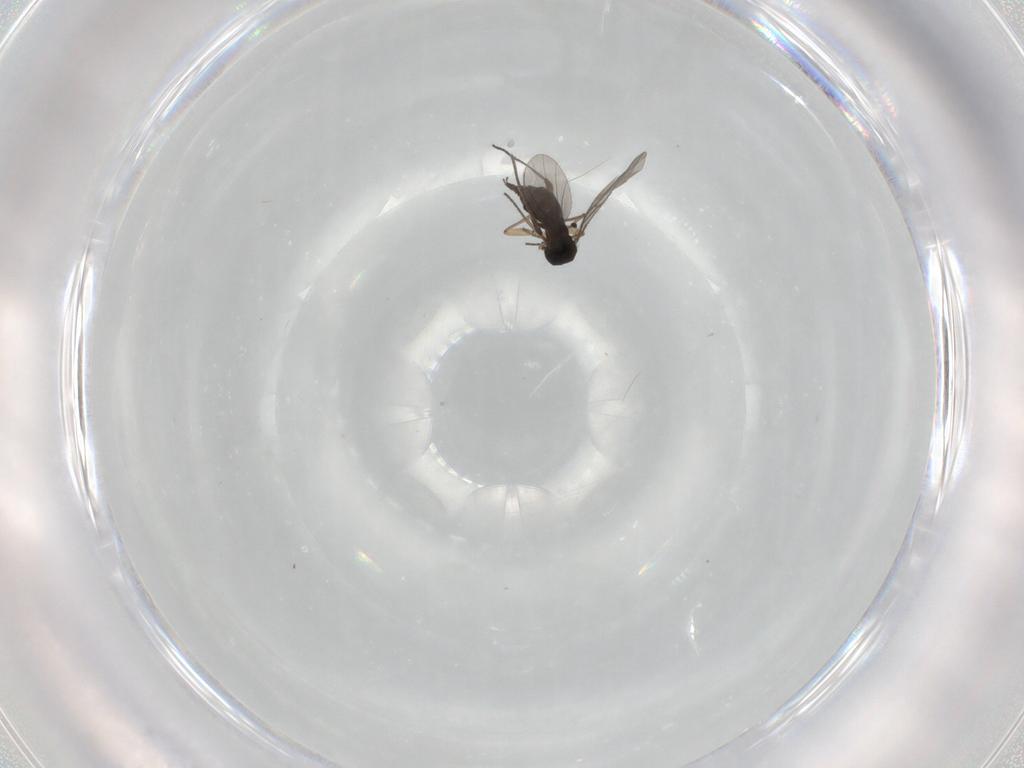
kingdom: Animalia
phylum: Arthropoda
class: Insecta
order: Diptera
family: Sciaridae
